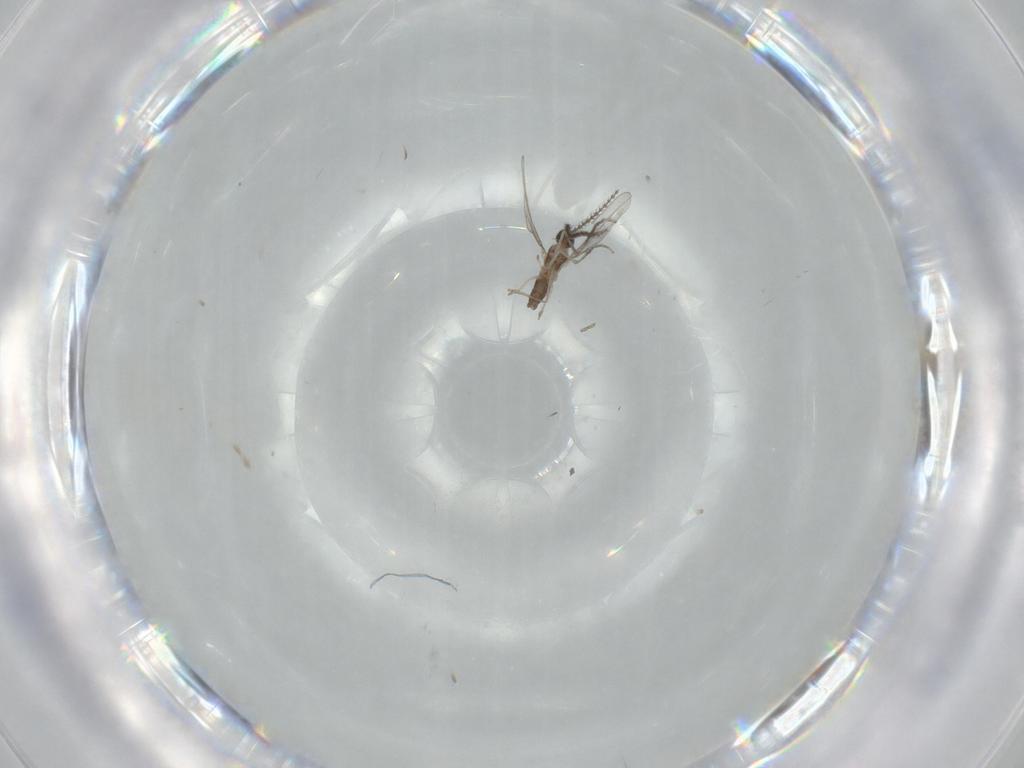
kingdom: Animalia
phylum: Arthropoda
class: Insecta
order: Diptera
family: Cecidomyiidae
